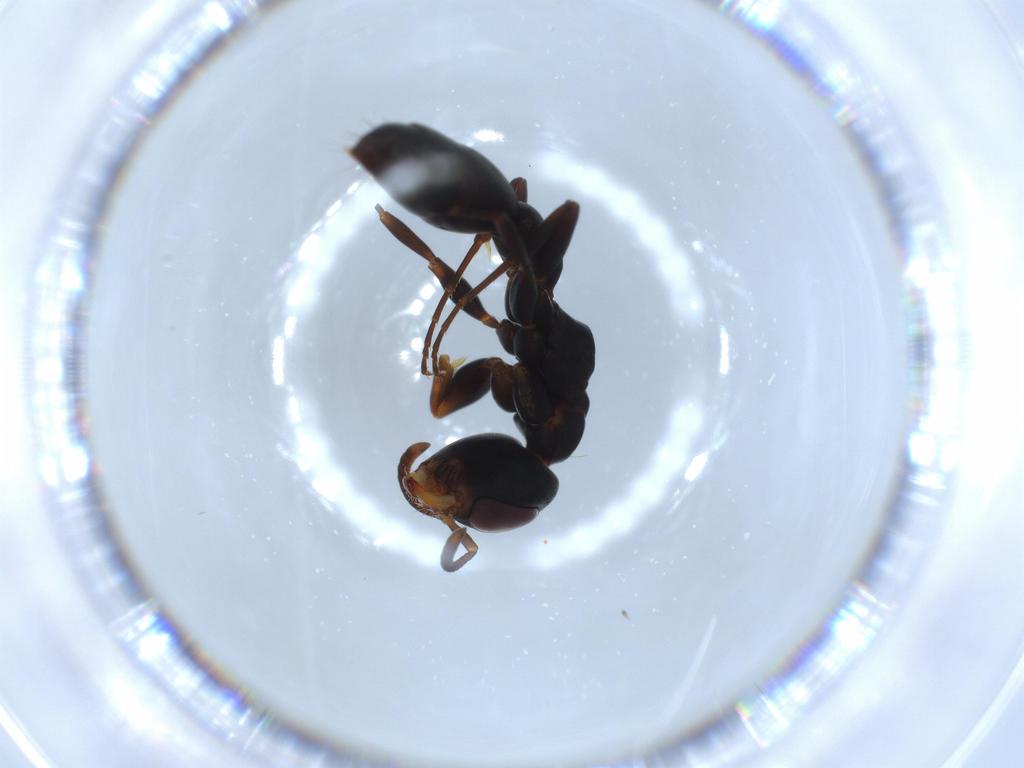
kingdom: Animalia
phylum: Arthropoda
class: Insecta
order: Hymenoptera
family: Formicidae
